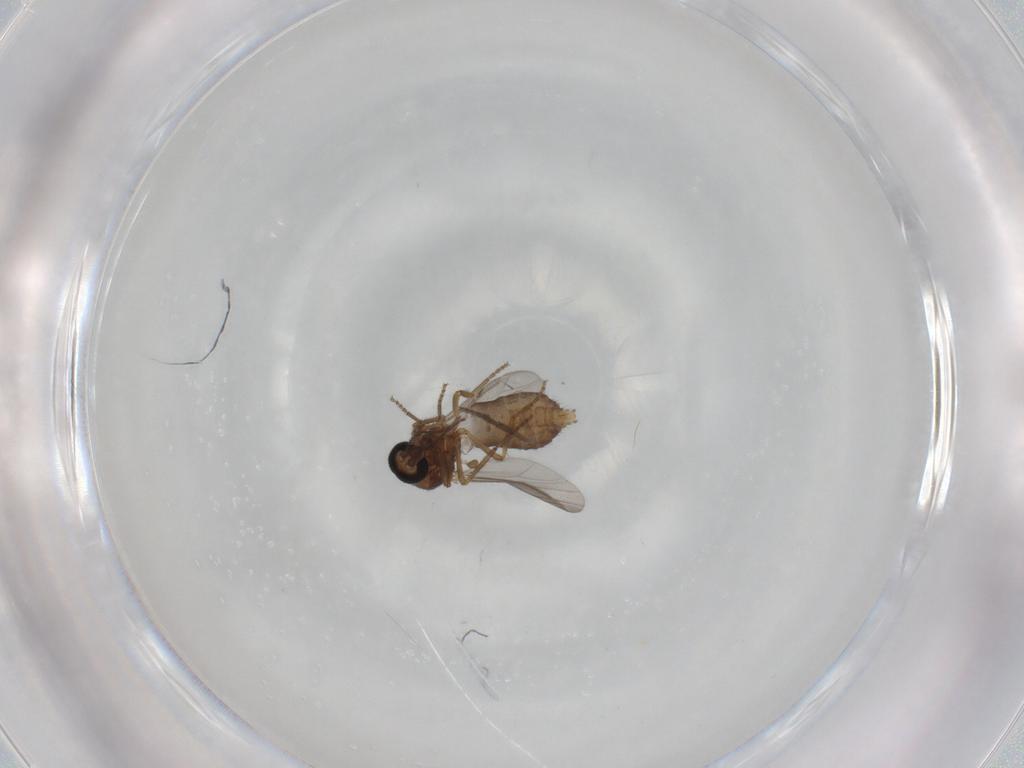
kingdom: Animalia
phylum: Arthropoda
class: Insecta
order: Diptera
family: Ceratopogonidae
